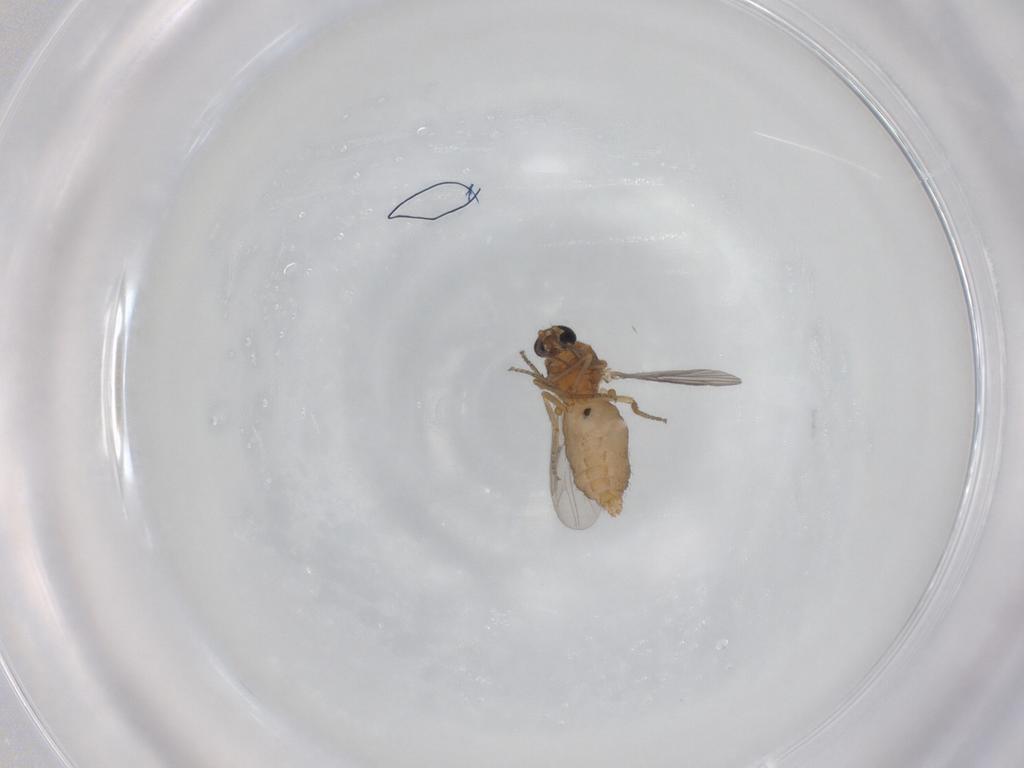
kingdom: Animalia
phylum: Arthropoda
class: Insecta
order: Diptera
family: Ceratopogonidae
